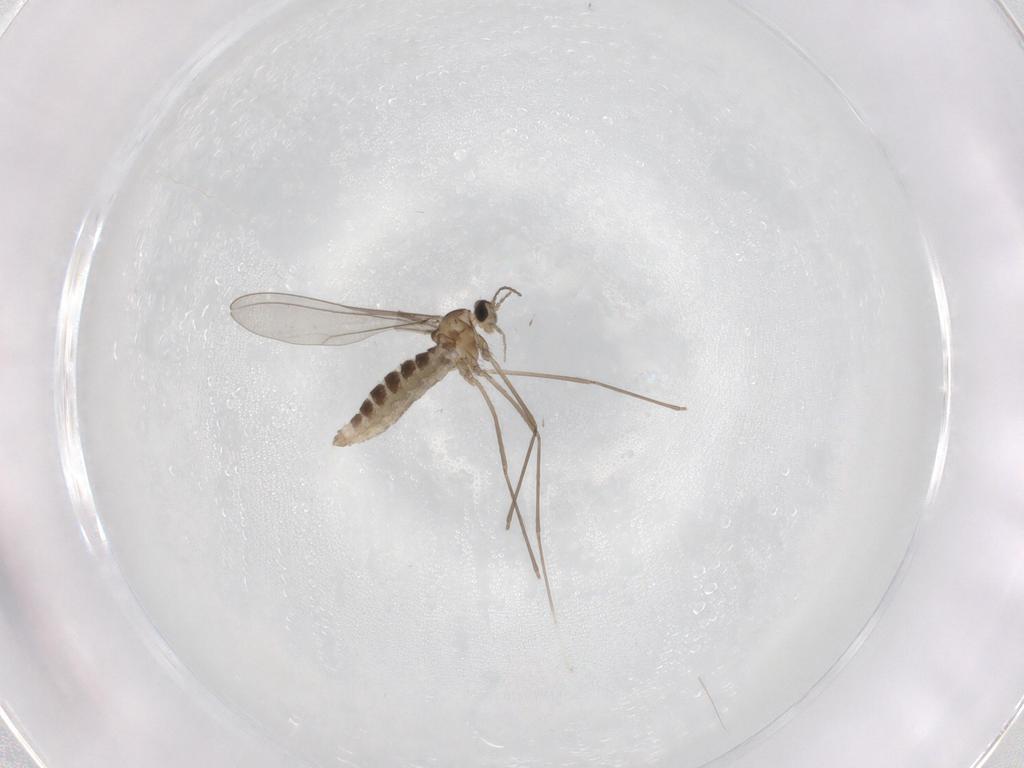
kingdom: Animalia
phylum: Arthropoda
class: Insecta
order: Diptera
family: Cecidomyiidae
